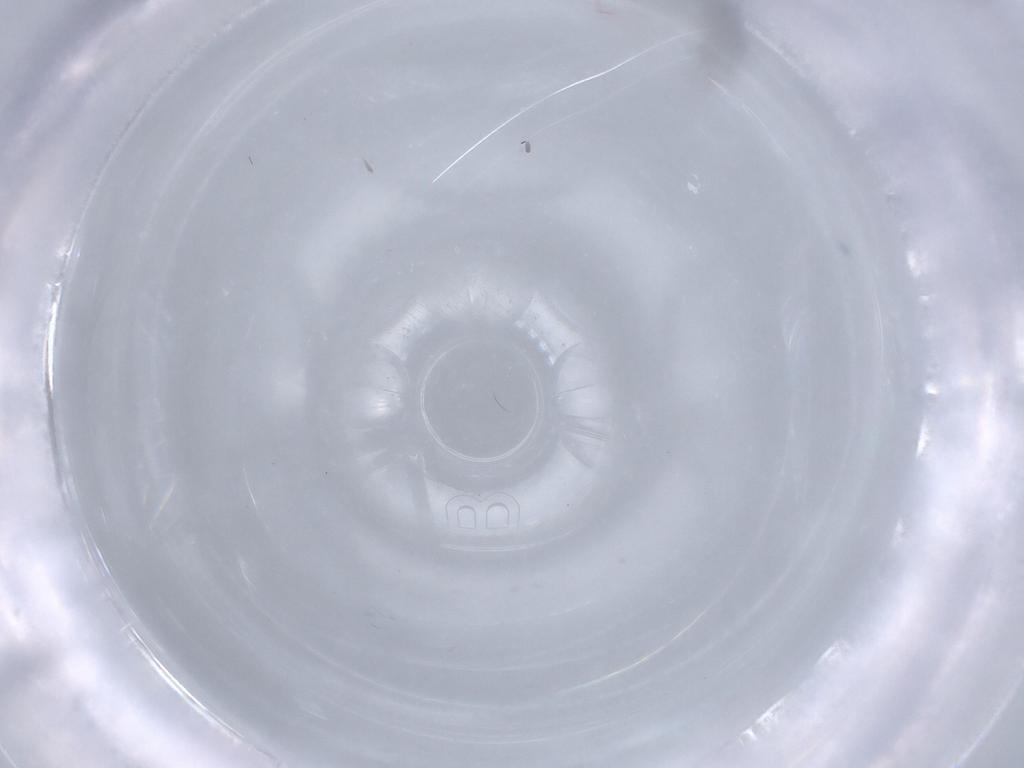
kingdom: Animalia
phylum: Arthropoda
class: Insecta
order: Hymenoptera
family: Bethylidae
